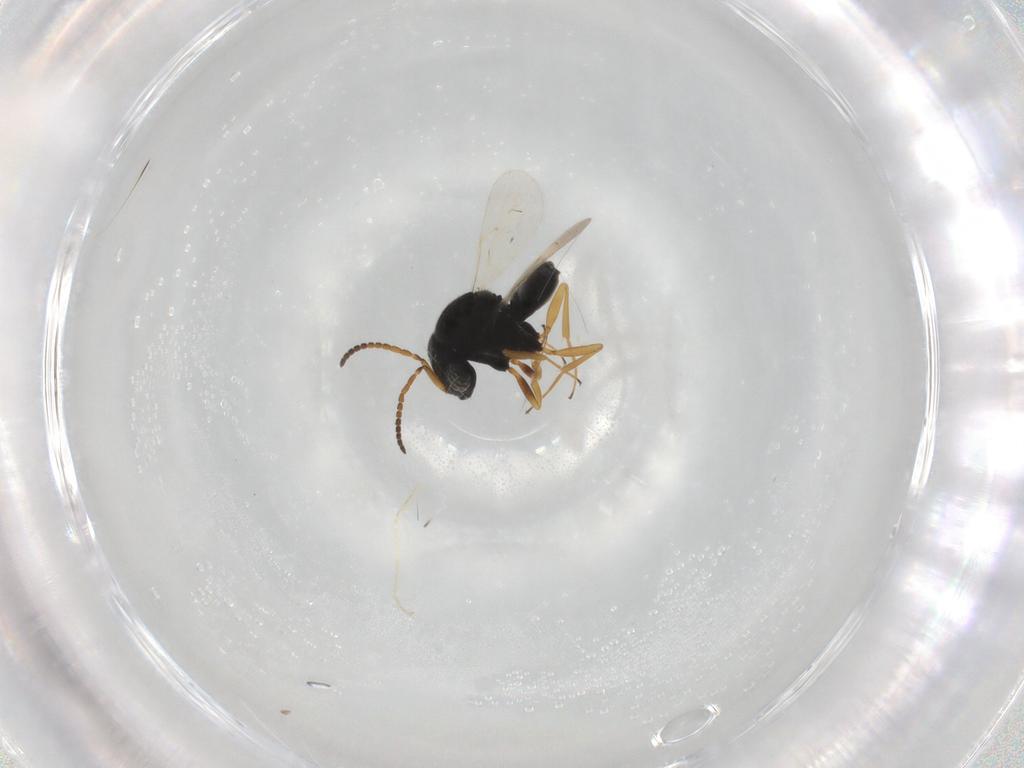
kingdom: Animalia
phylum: Arthropoda
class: Insecta
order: Hymenoptera
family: Scelionidae
